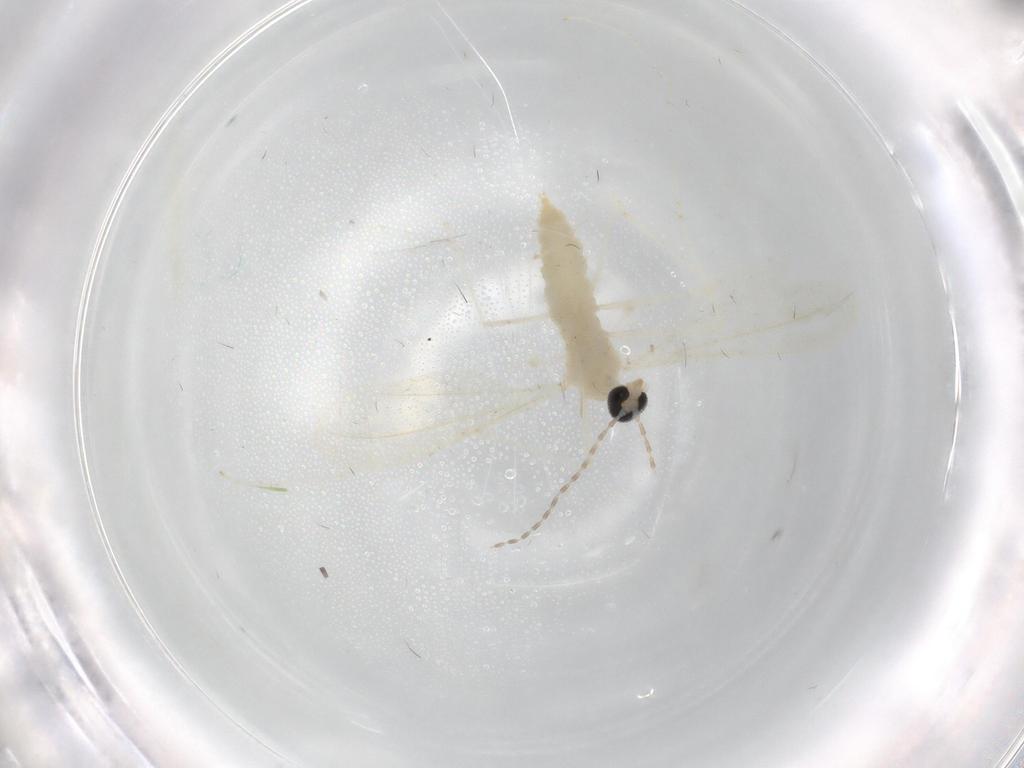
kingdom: Animalia
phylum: Arthropoda
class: Insecta
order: Diptera
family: Cecidomyiidae
